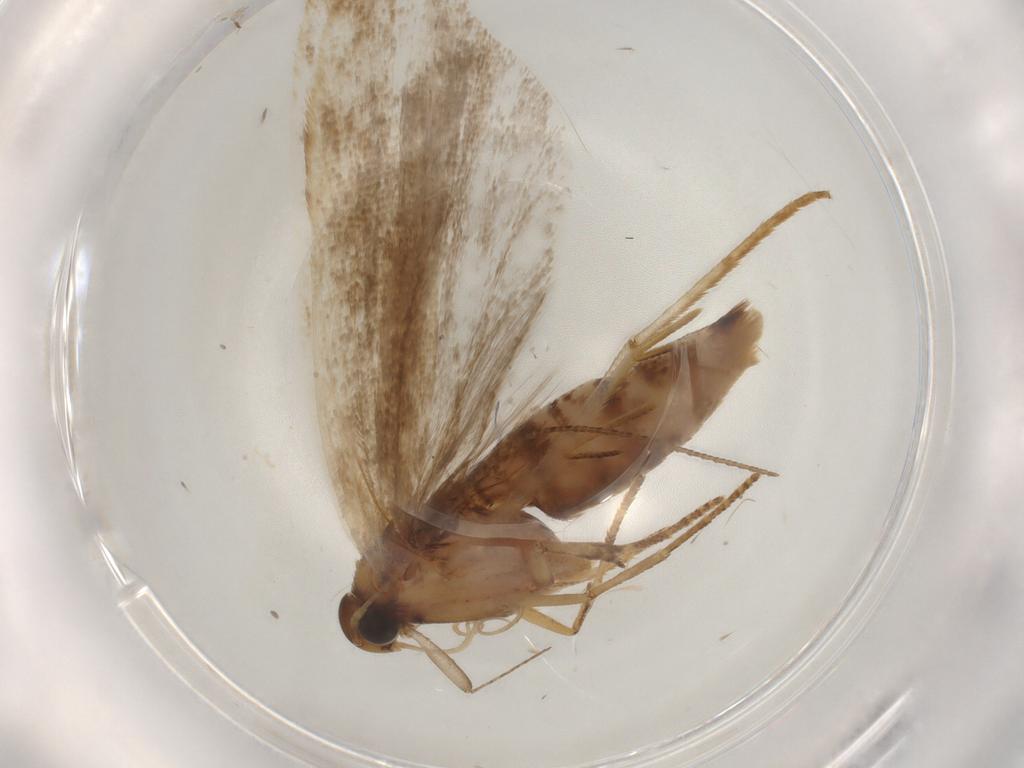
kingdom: Animalia
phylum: Arthropoda
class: Insecta
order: Lepidoptera
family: Gelechiidae
